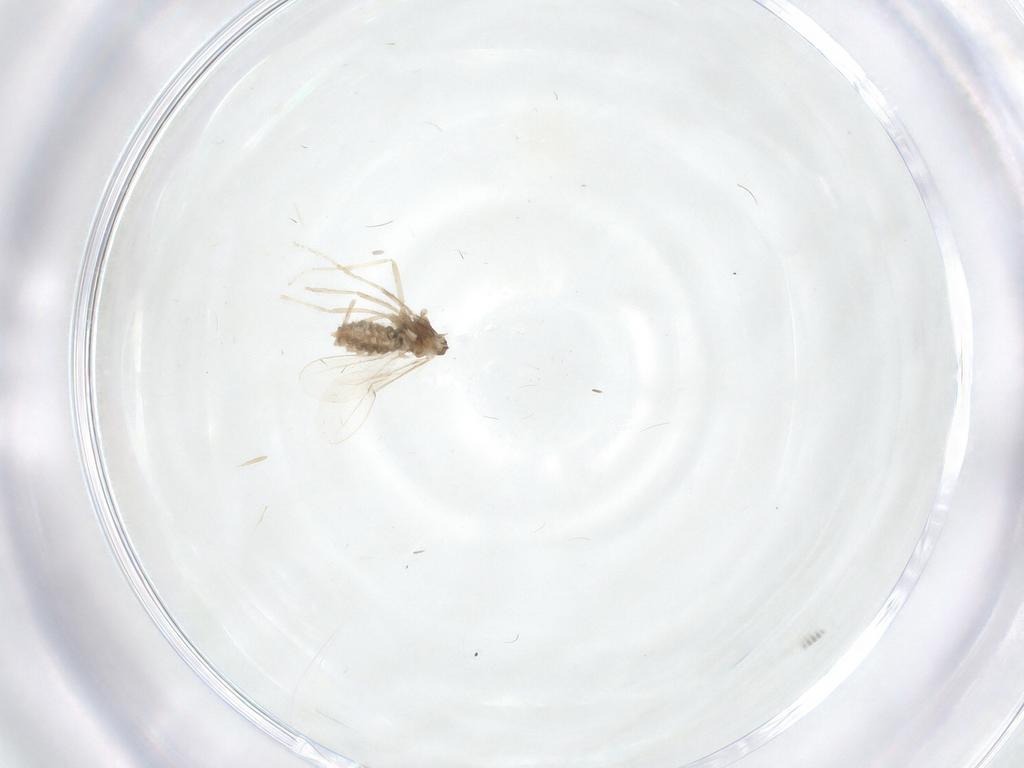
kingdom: Animalia
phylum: Arthropoda
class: Insecta
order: Diptera
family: Cecidomyiidae
